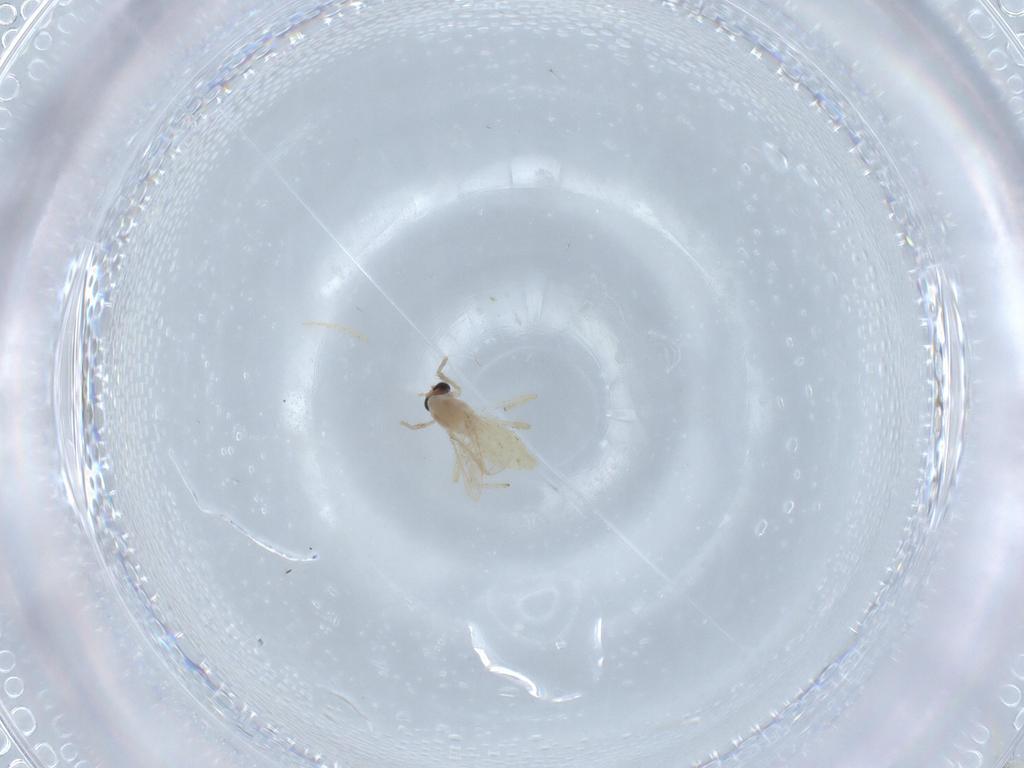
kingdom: Animalia
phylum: Arthropoda
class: Insecta
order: Diptera
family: Chironomidae
